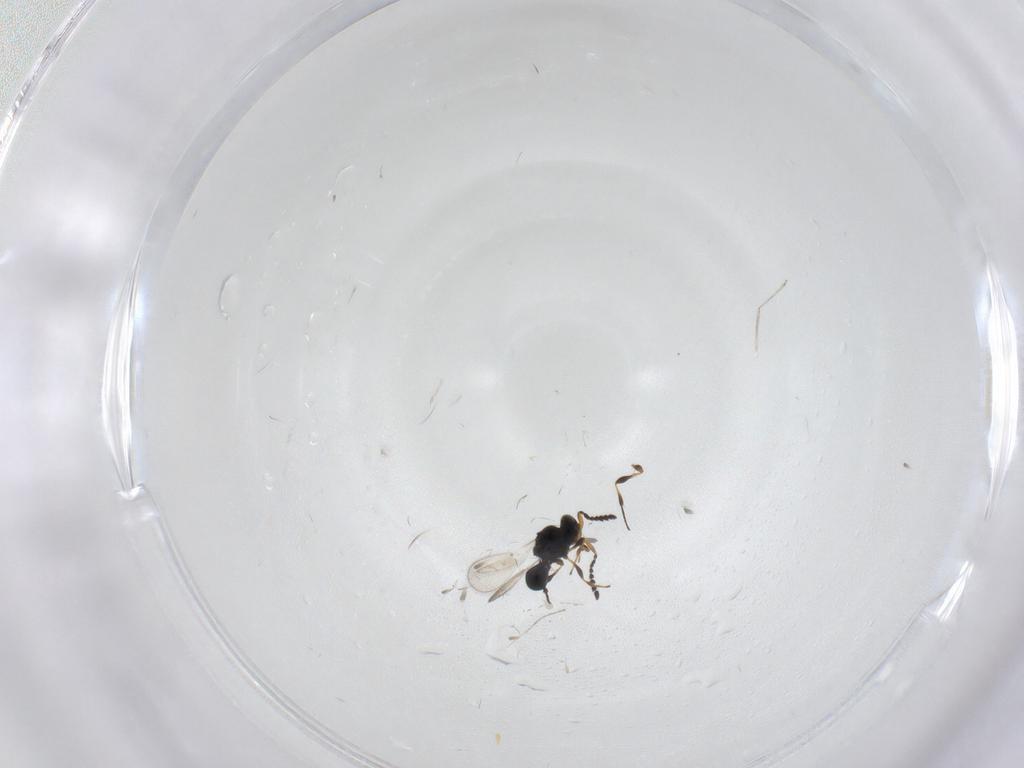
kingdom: Animalia
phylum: Arthropoda
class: Insecta
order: Hymenoptera
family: Platygastridae
